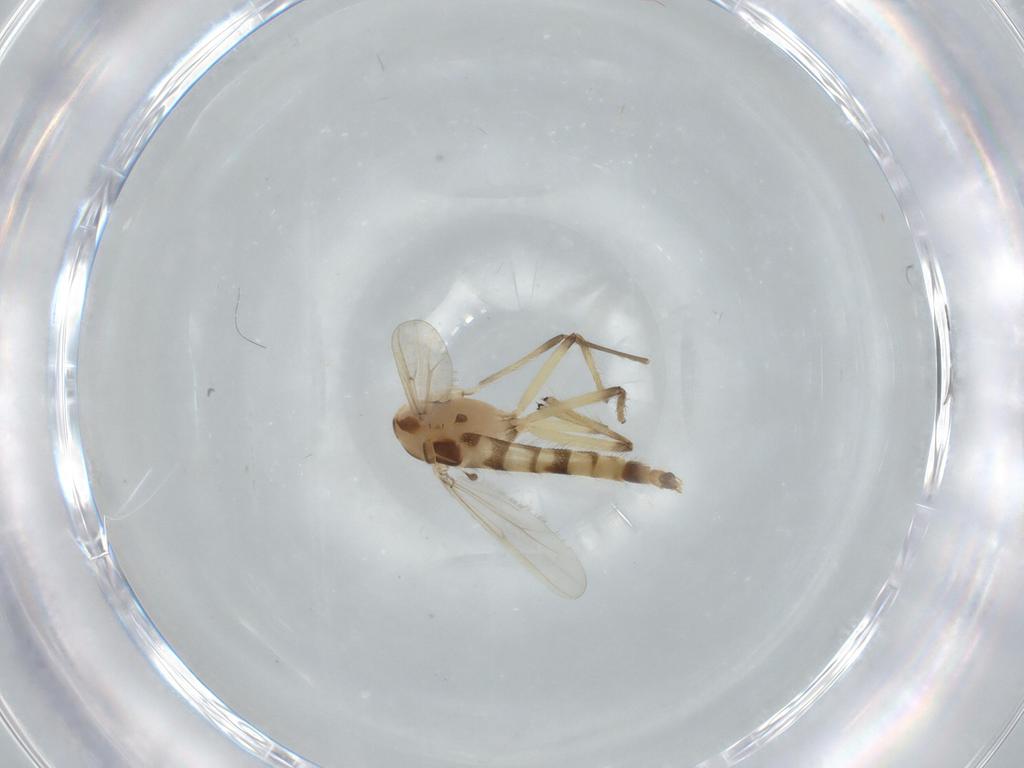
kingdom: Animalia
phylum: Arthropoda
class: Insecta
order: Diptera
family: Chironomidae
